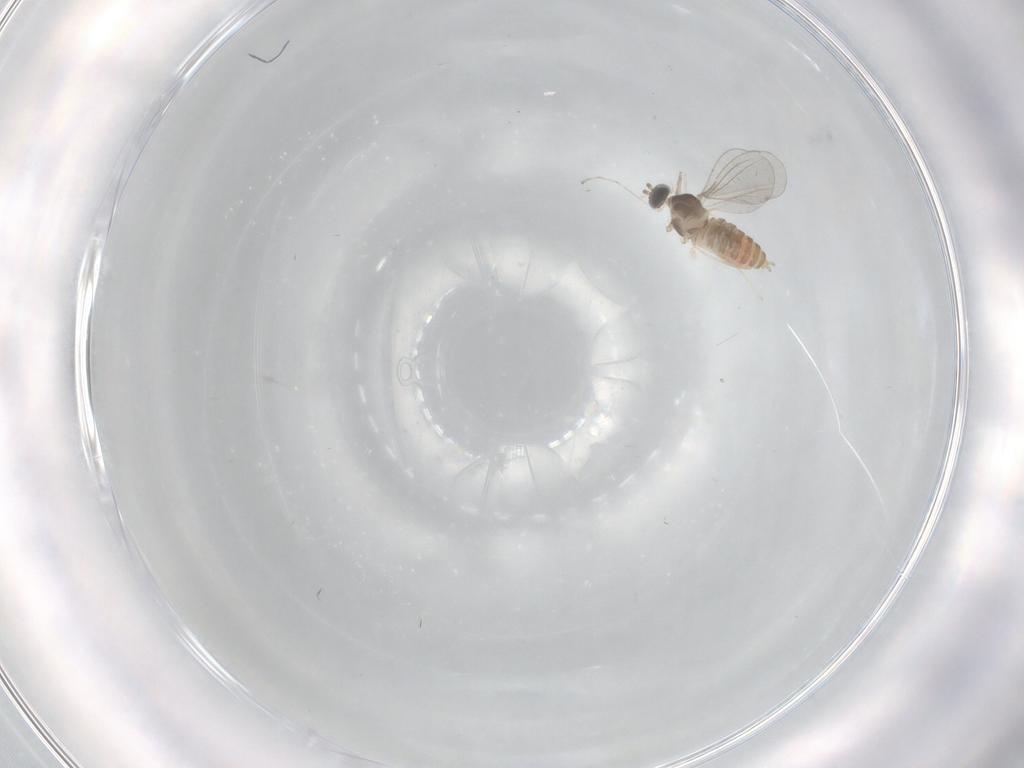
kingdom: Animalia
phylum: Arthropoda
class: Insecta
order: Diptera
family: Cecidomyiidae
